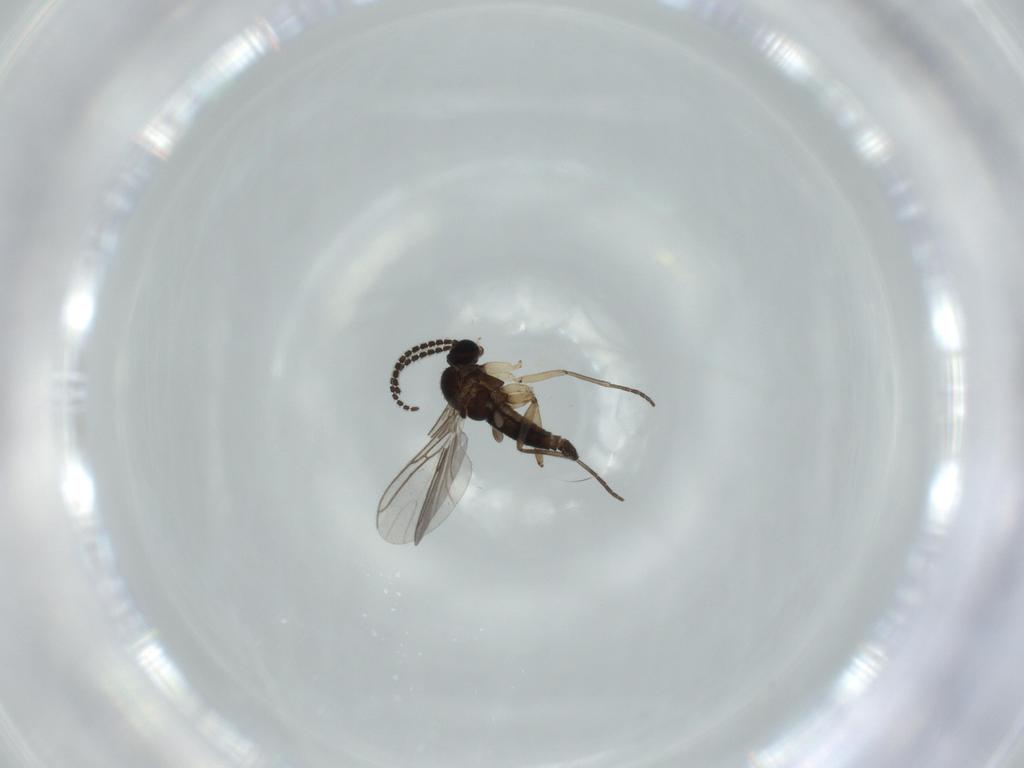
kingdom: Animalia
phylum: Arthropoda
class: Insecta
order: Diptera
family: Sciaridae
